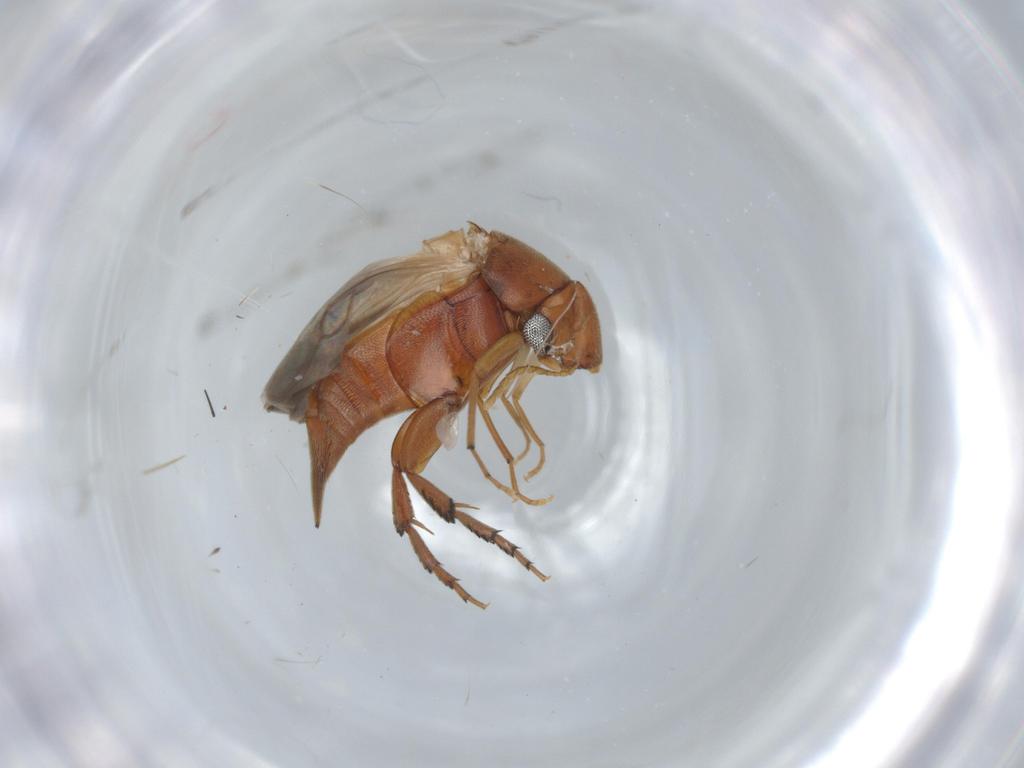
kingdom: Animalia
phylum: Arthropoda
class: Insecta
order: Coleoptera
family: Mordellidae
